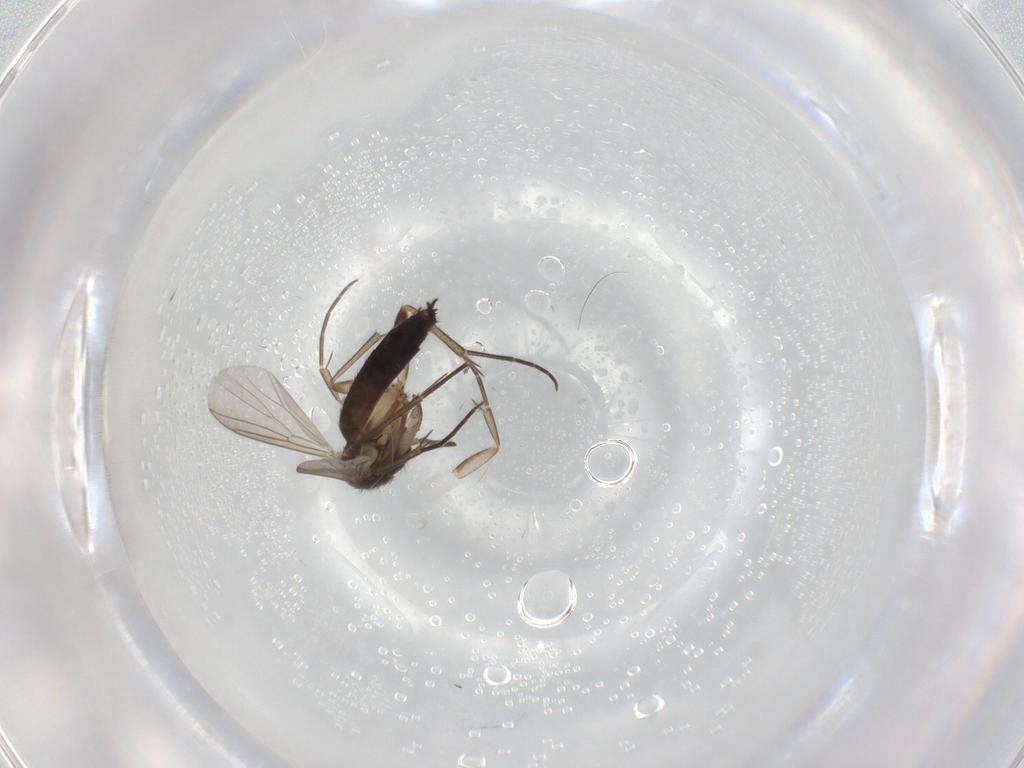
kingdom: Animalia
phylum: Arthropoda
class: Insecta
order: Diptera
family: Mycetophilidae
